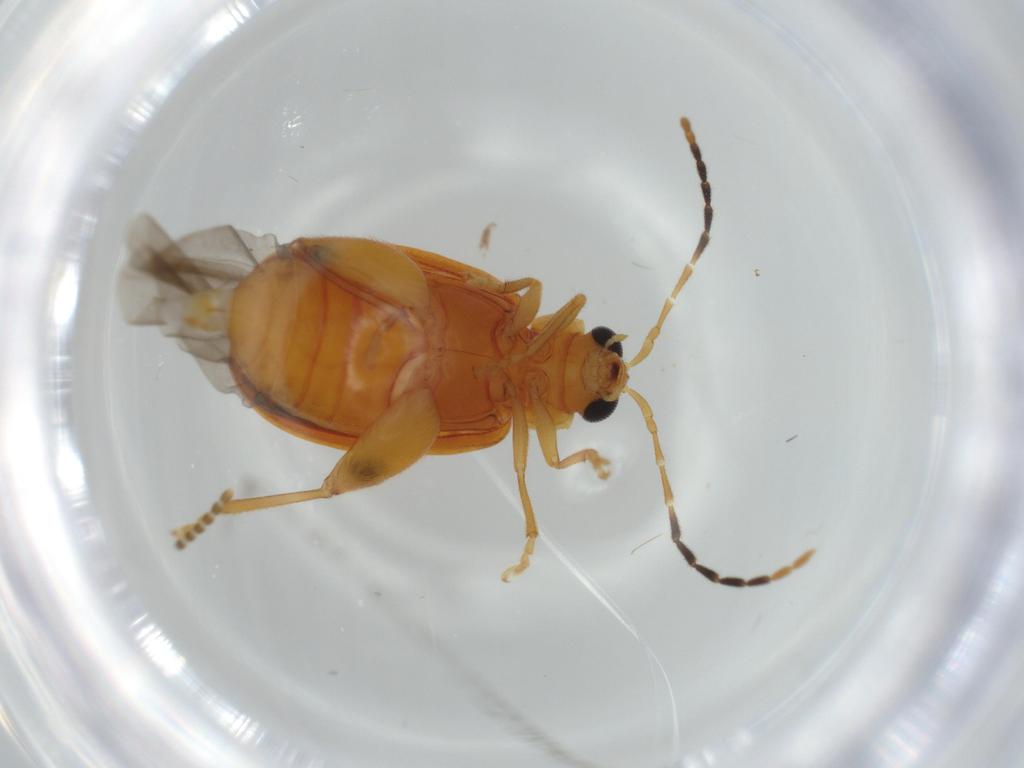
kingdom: Animalia
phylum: Arthropoda
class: Insecta
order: Coleoptera
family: Chrysomelidae
